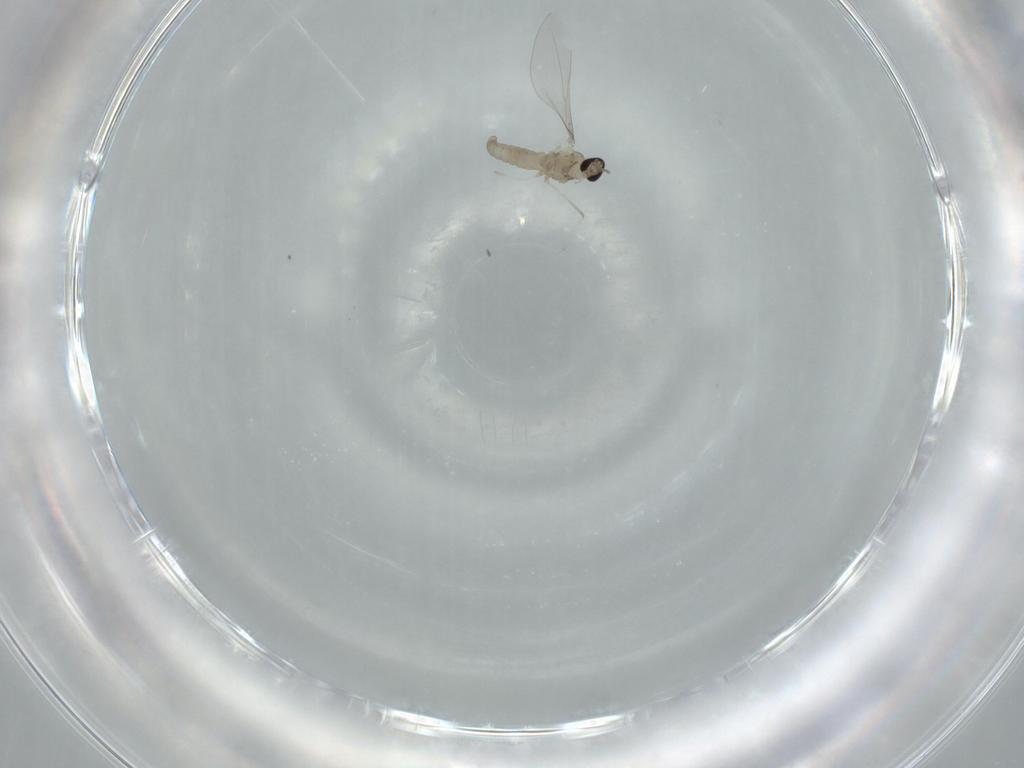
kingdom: Animalia
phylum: Arthropoda
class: Insecta
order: Diptera
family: Cecidomyiidae
